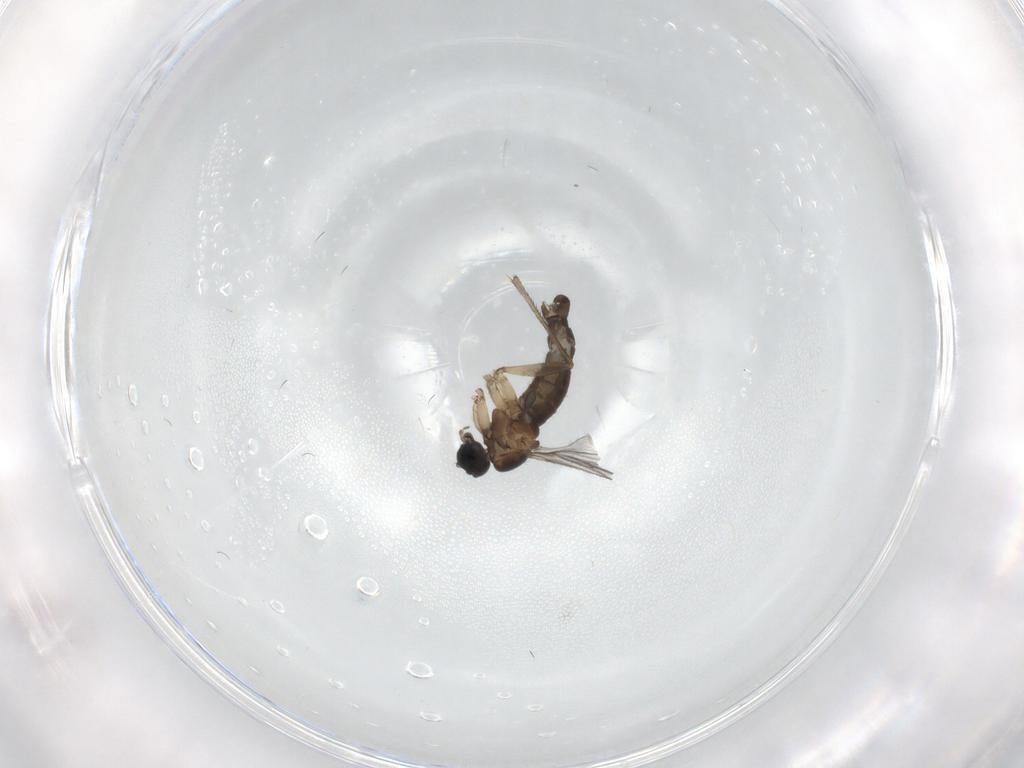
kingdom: Animalia
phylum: Arthropoda
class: Insecta
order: Diptera
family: Sciaridae
